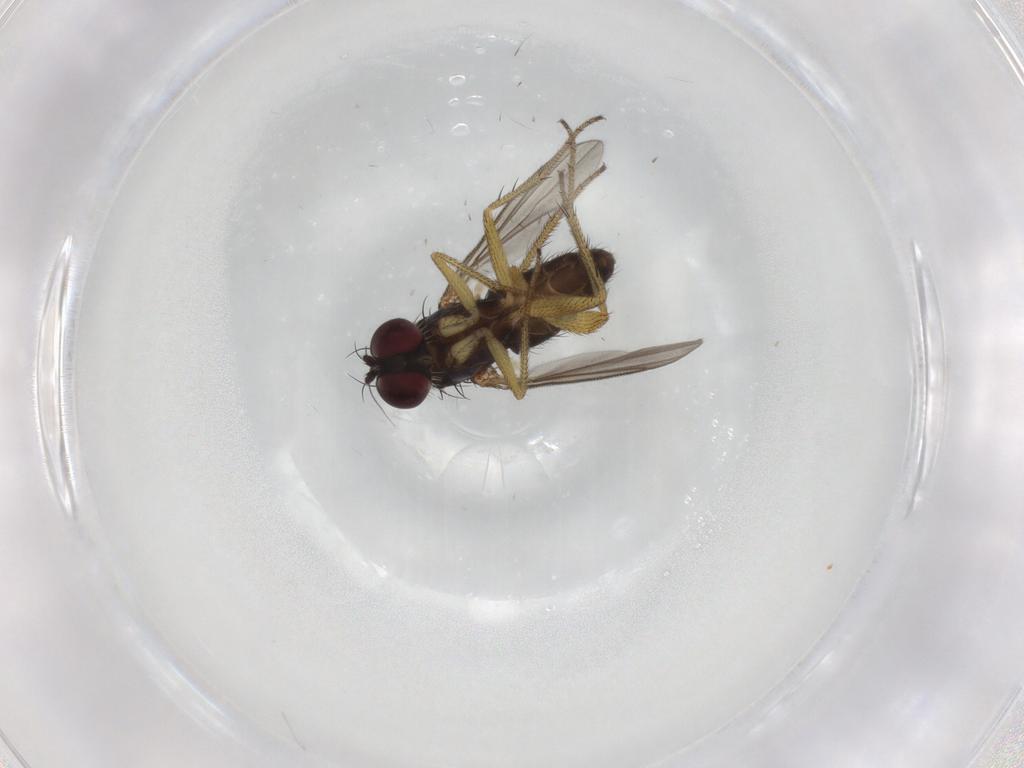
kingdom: Animalia
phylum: Arthropoda
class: Insecta
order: Diptera
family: Dolichopodidae
